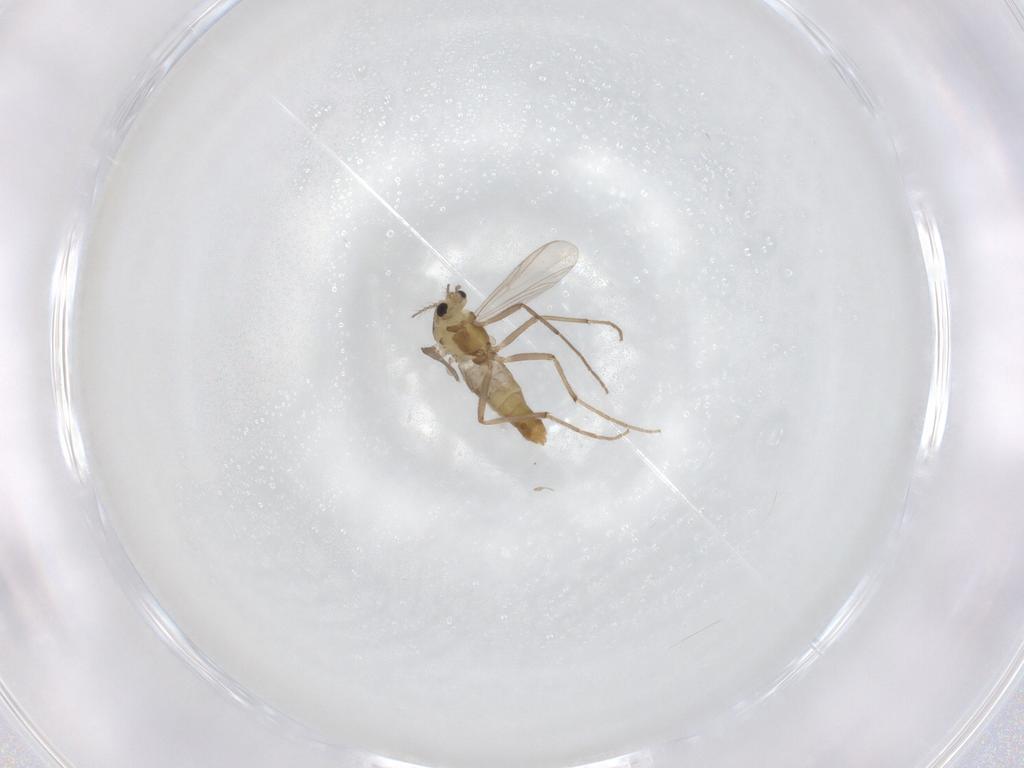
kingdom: Animalia
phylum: Arthropoda
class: Insecta
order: Diptera
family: Chironomidae
